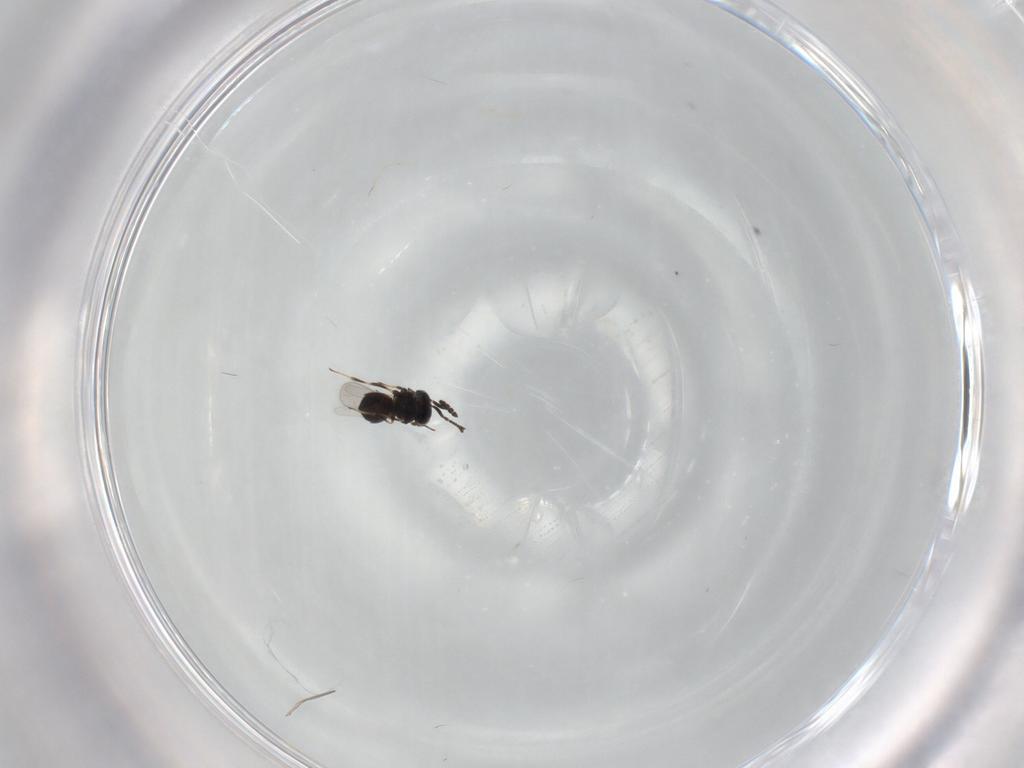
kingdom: Animalia
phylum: Arthropoda
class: Insecta
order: Hymenoptera
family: Scelionidae
